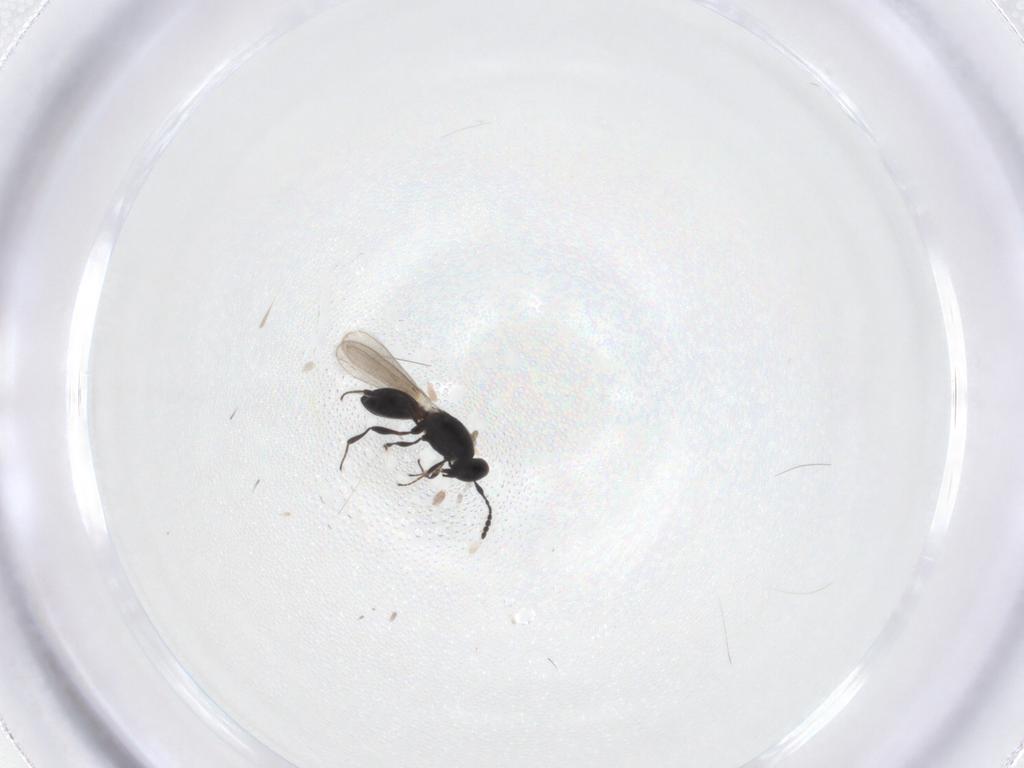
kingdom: Animalia
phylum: Arthropoda
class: Insecta
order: Hymenoptera
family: Platygastridae
